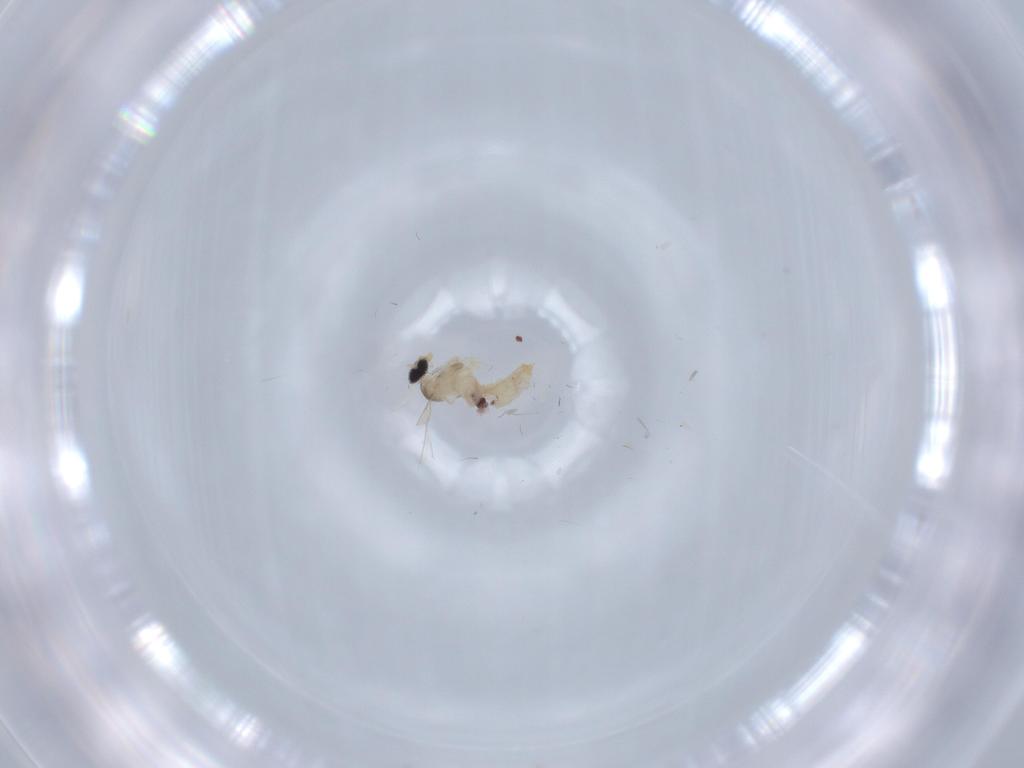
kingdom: Animalia
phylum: Arthropoda
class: Insecta
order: Diptera
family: Cecidomyiidae
